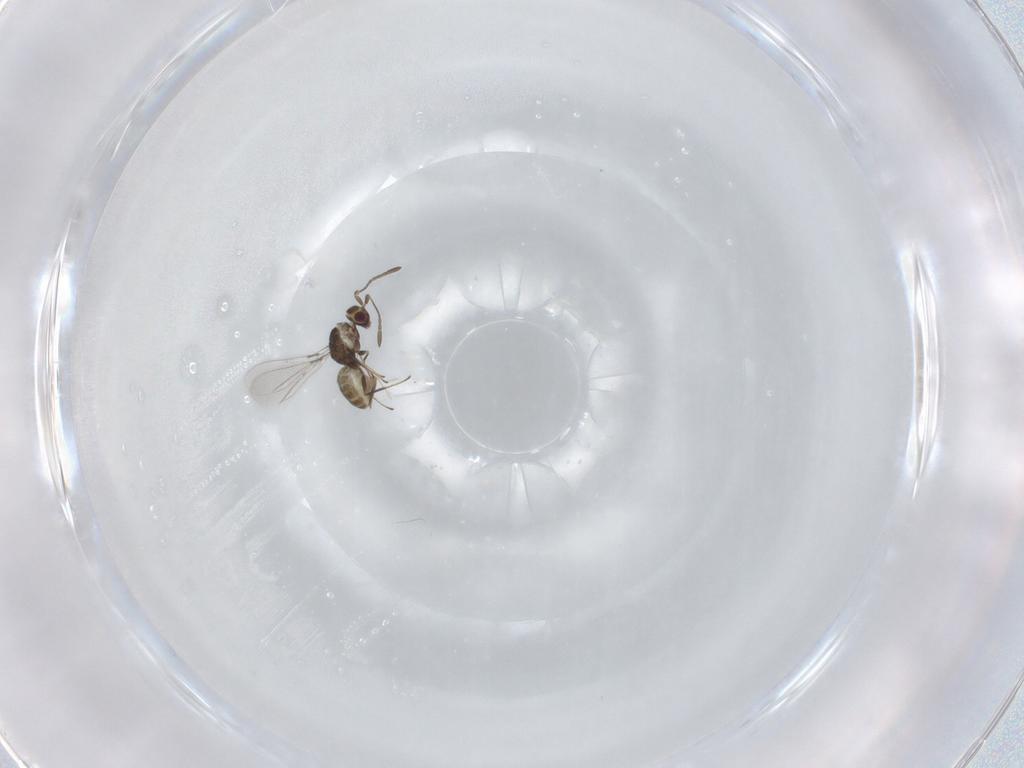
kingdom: Animalia
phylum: Arthropoda
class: Insecta
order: Hymenoptera
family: Mymaridae
